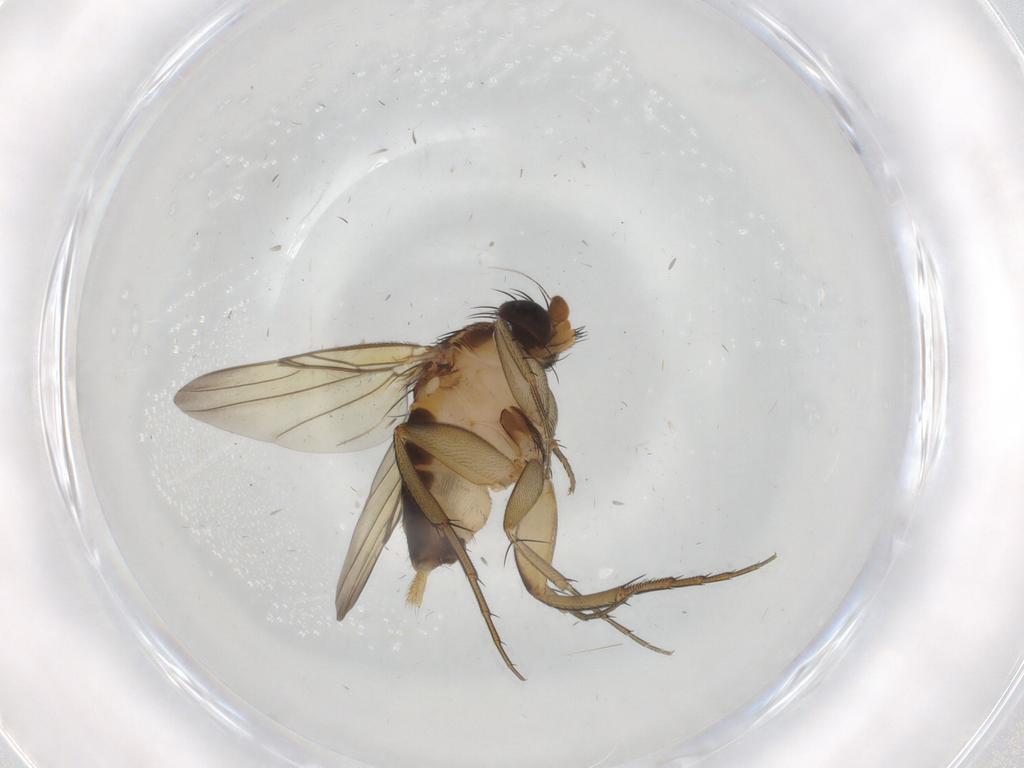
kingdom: Animalia
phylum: Arthropoda
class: Insecta
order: Diptera
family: Phoridae
